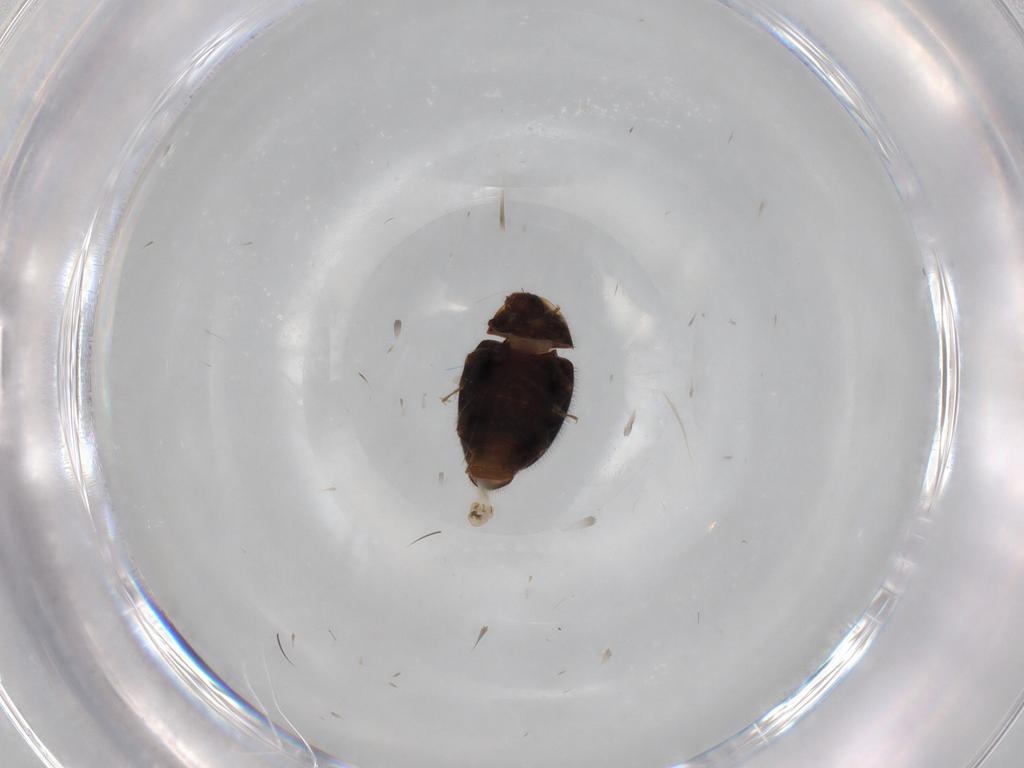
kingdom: Animalia
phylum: Arthropoda
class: Insecta
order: Coleoptera
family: Corylophidae
